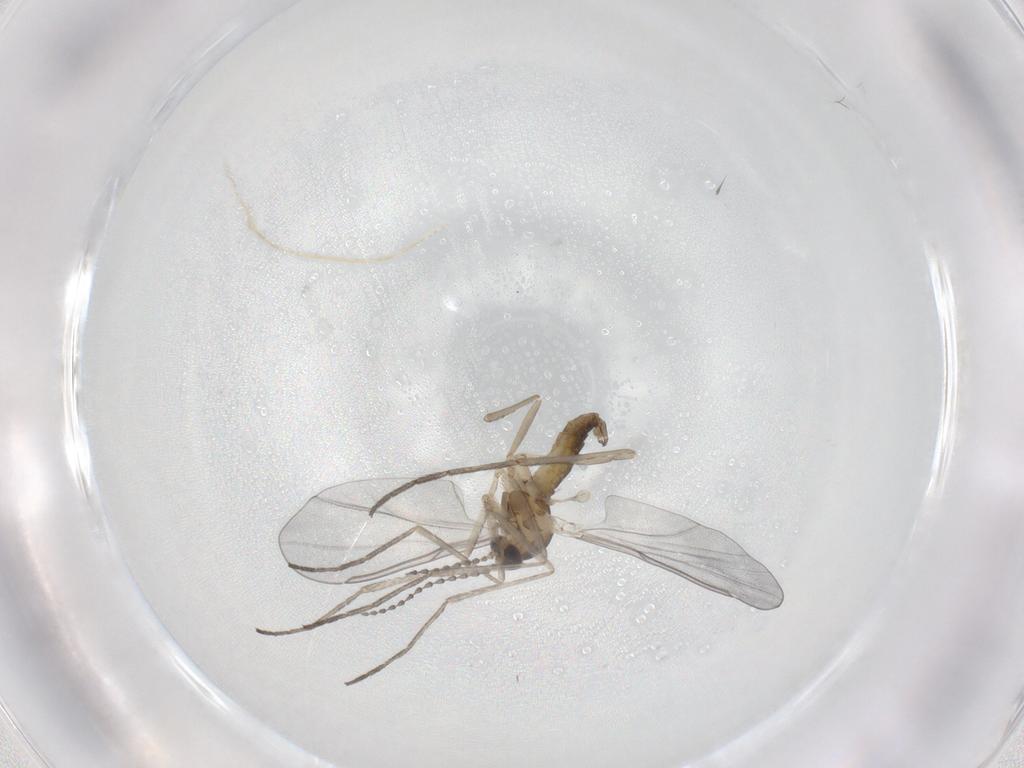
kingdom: Animalia
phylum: Arthropoda
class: Insecta
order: Diptera
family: Cecidomyiidae
